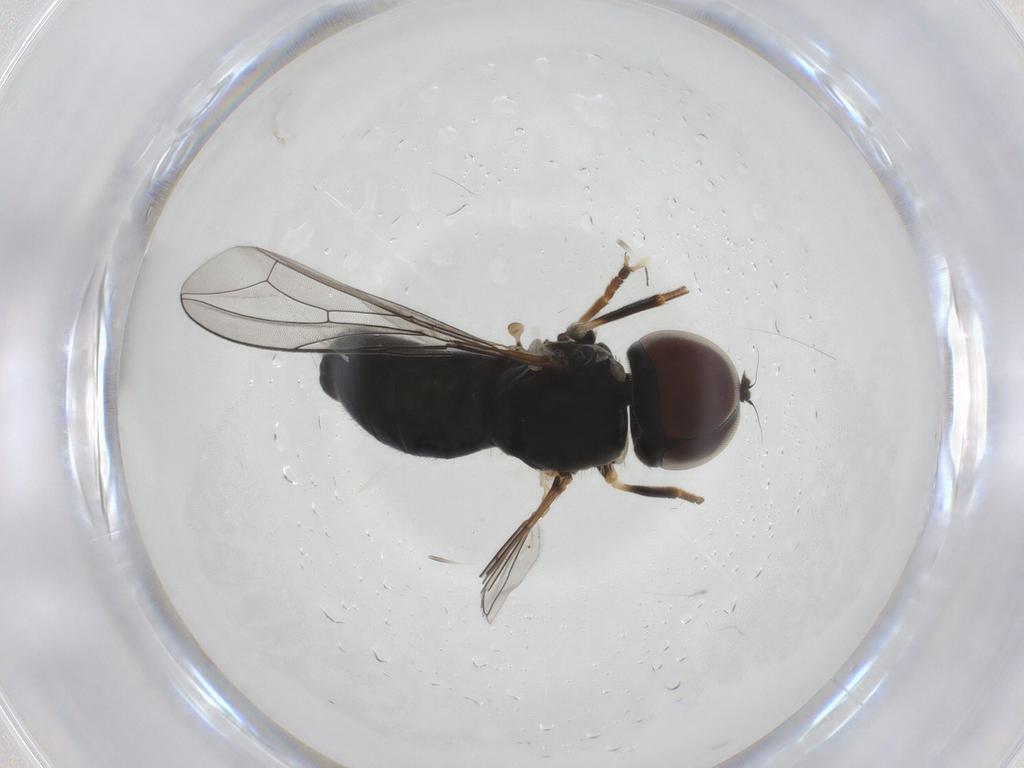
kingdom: Animalia
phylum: Arthropoda
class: Insecta
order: Diptera
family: Pipunculidae
